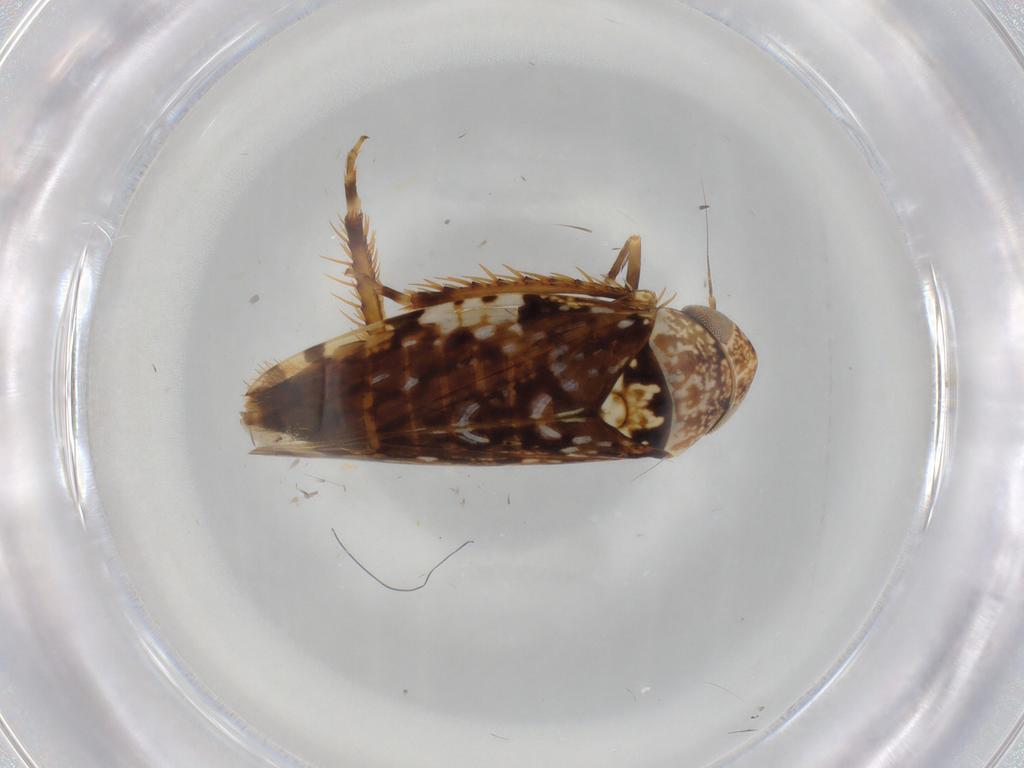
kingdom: Animalia
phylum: Arthropoda
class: Insecta
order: Hemiptera
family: Cicadellidae
